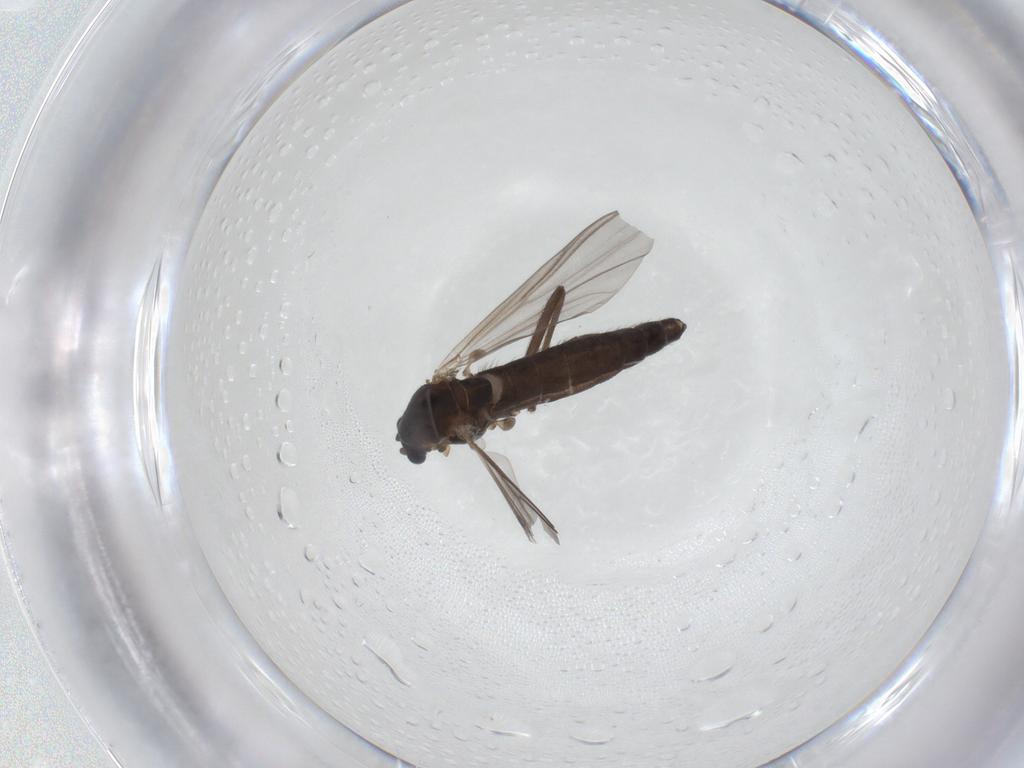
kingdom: Animalia
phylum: Arthropoda
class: Insecta
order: Diptera
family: Chironomidae
